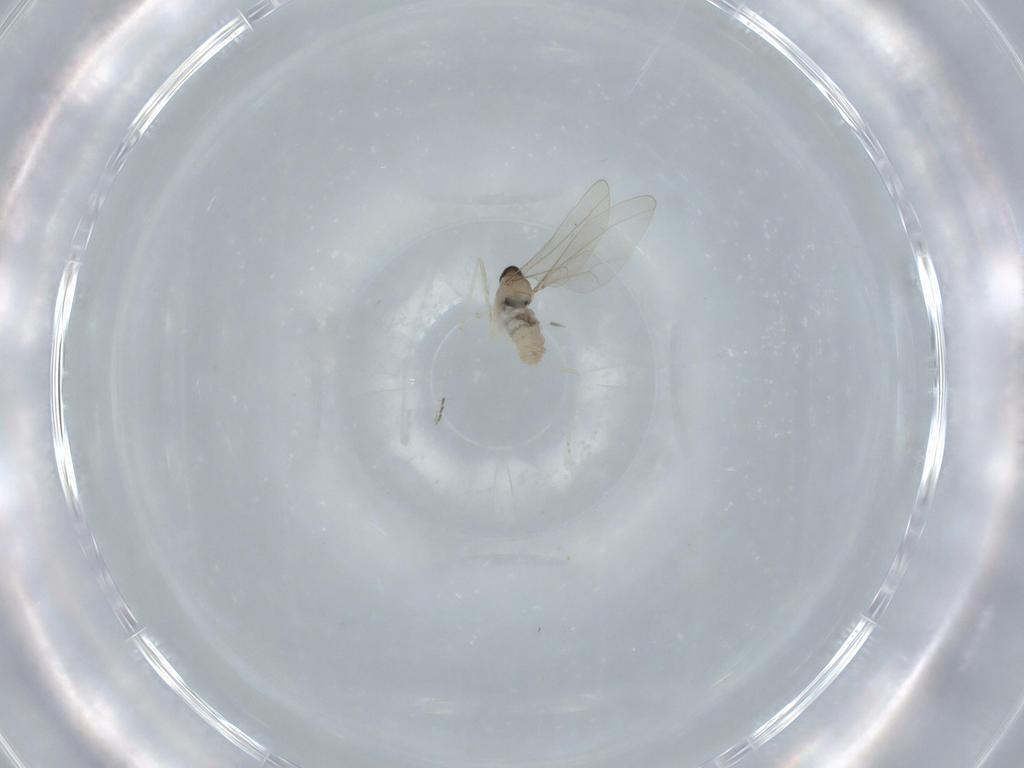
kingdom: Animalia
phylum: Arthropoda
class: Insecta
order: Diptera
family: Cecidomyiidae
